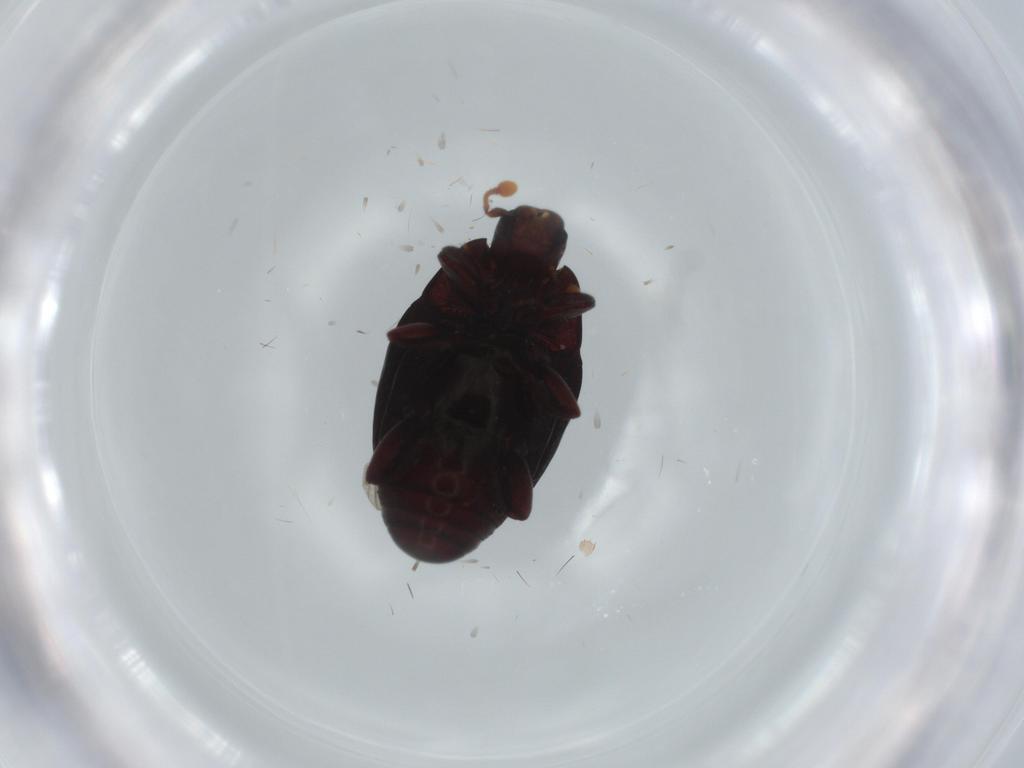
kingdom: Animalia
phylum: Arthropoda
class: Insecta
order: Coleoptera
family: Tenebrionidae
